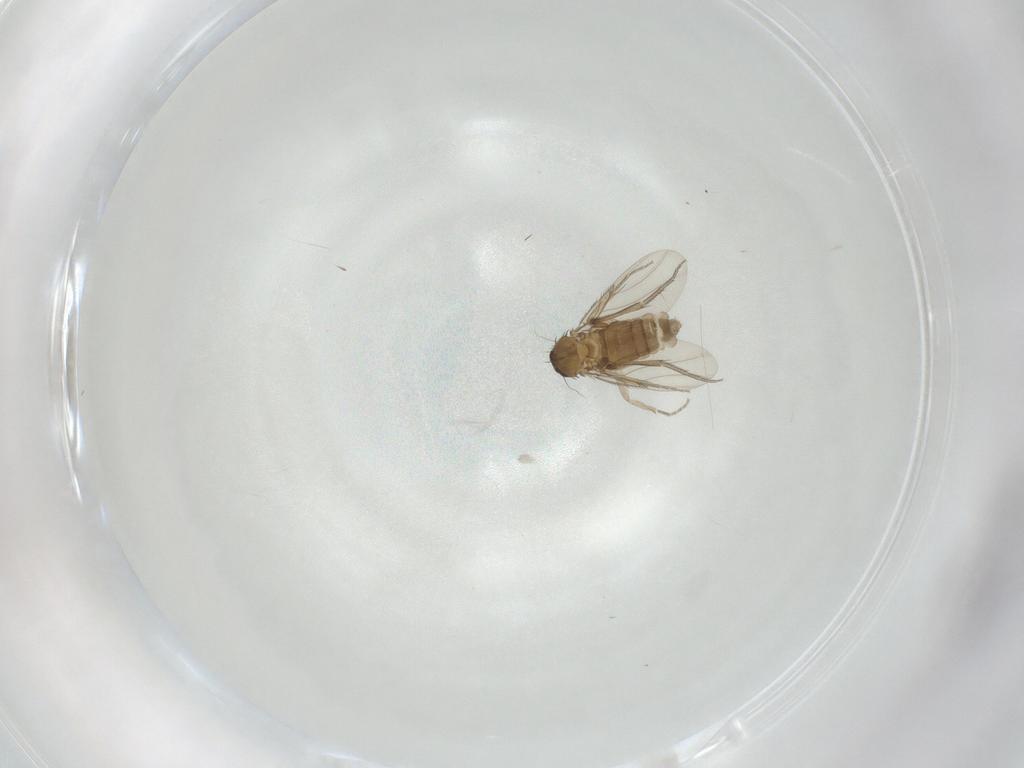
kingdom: Animalia
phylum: Arthropoda
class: Insecta
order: Diptera
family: Phoridae
